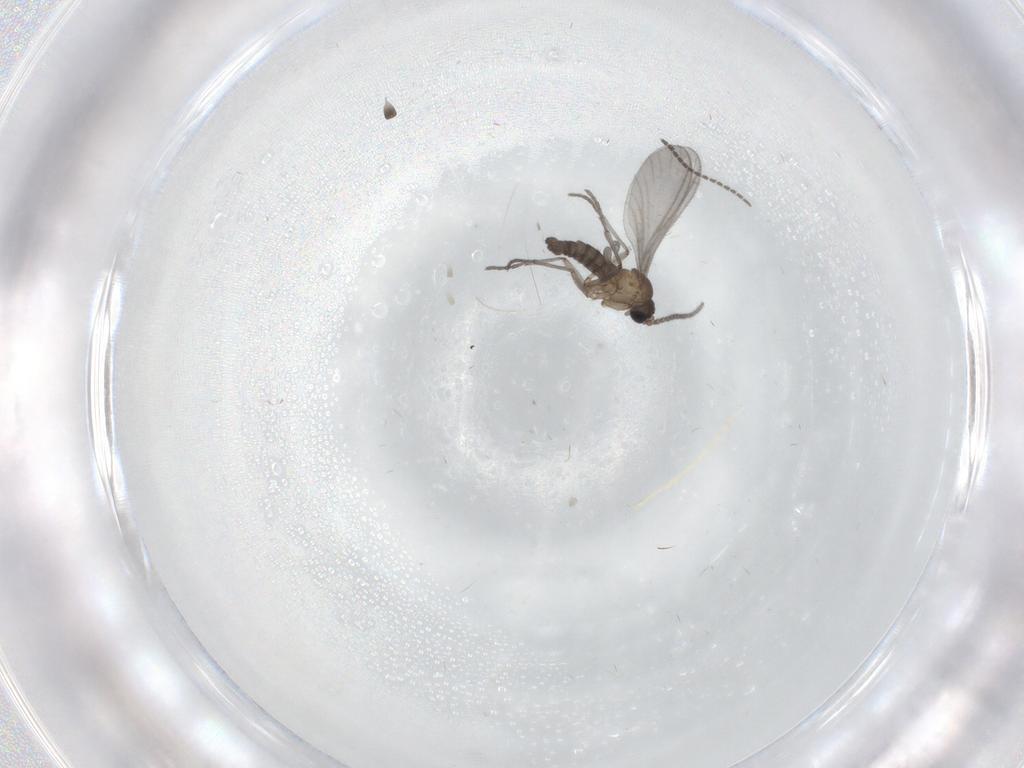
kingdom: Animalia
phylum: Arthropoda
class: Insecta
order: Diptera
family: Sciaridae
